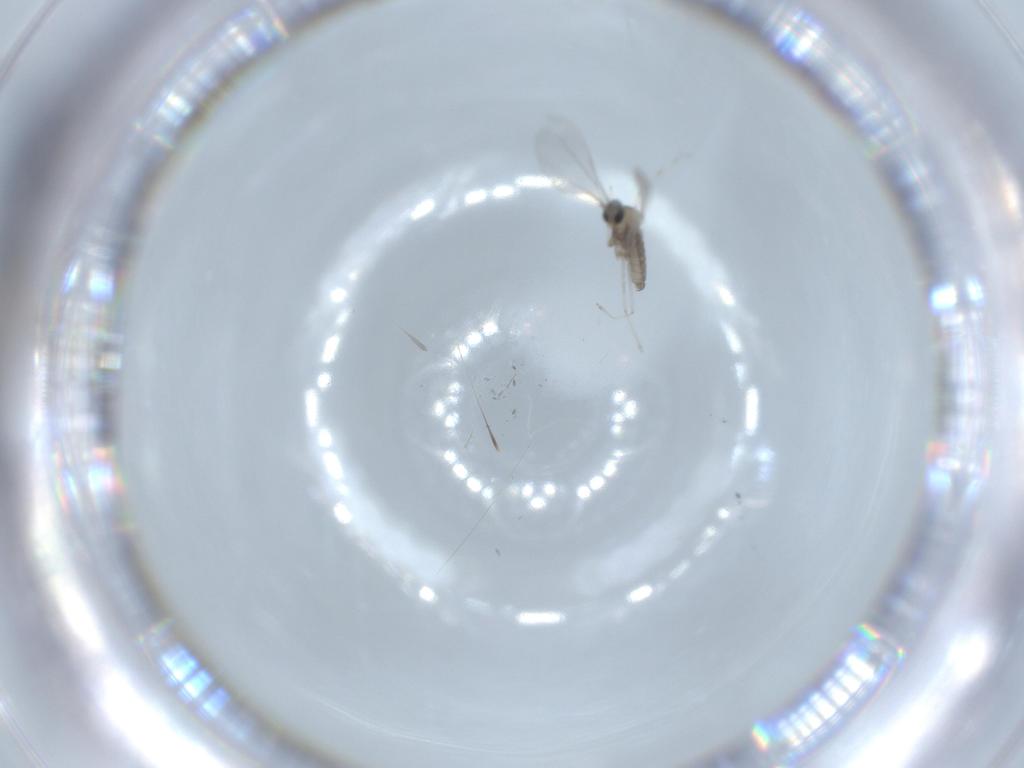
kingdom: Animalia
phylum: Arthropoda
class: Insecta
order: Diptera
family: Cecidomyiidae
